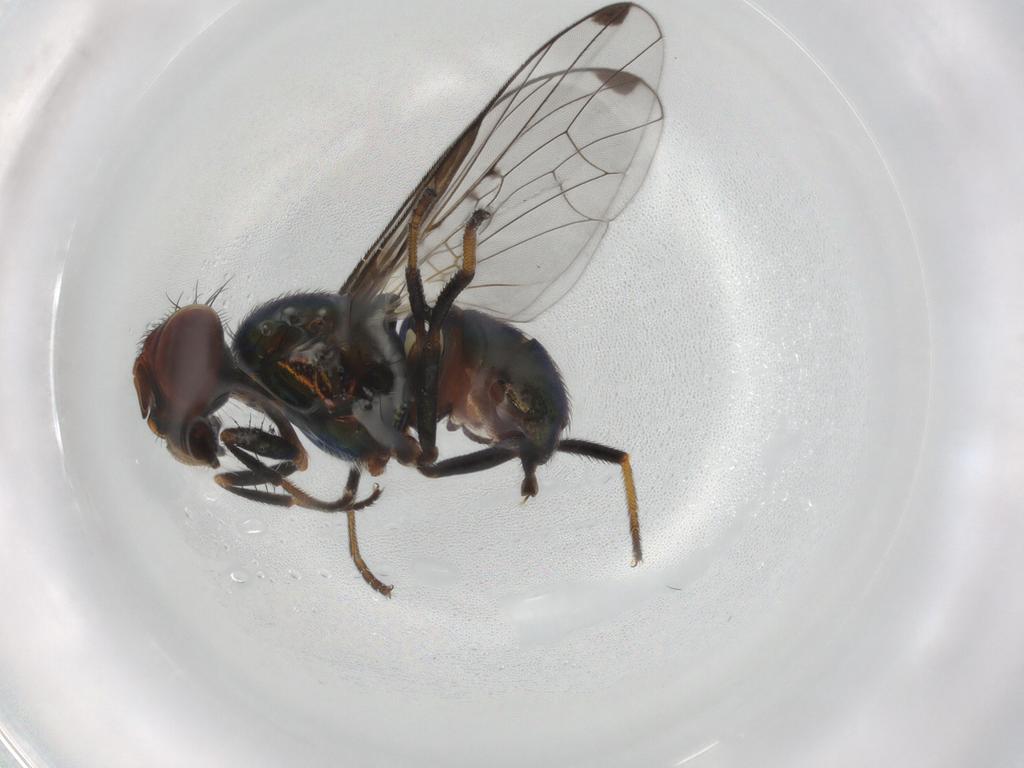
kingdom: Animalia
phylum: Arthropoda
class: Insecta
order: Diptera
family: Platystomatidae
